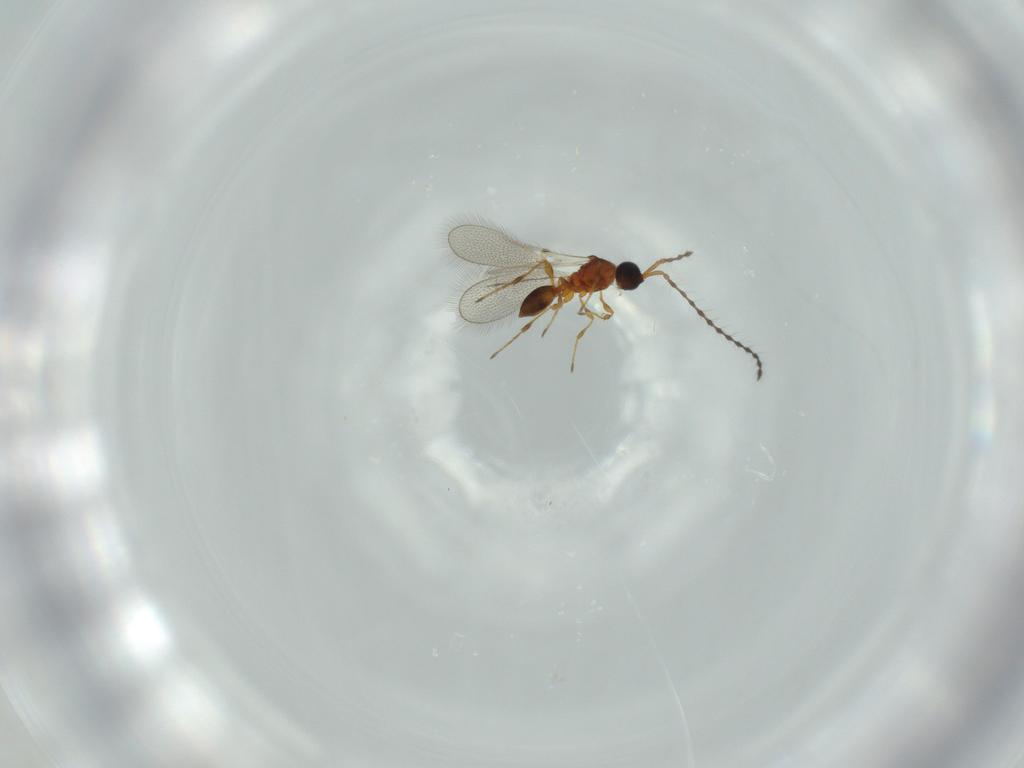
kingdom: Animalia
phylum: Arthropoda
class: Insecta
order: Hymenoptera
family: Diapriidae
